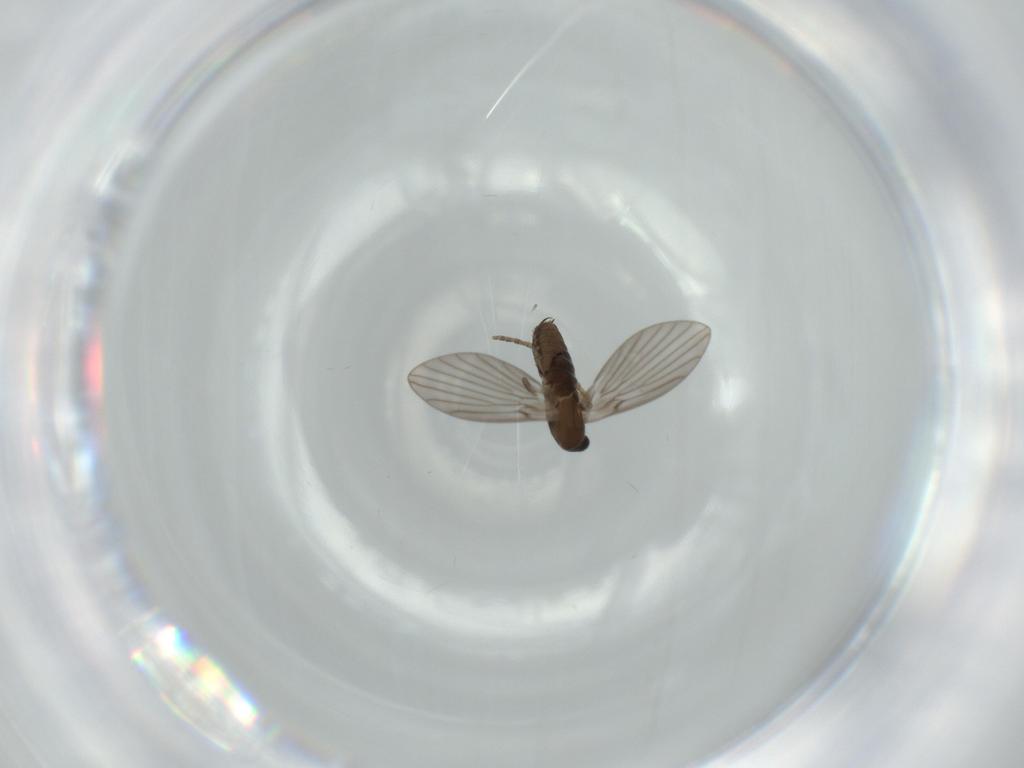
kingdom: Animalia
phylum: Arthropoda
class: Insecta
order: Diptera
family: Psychodidae
